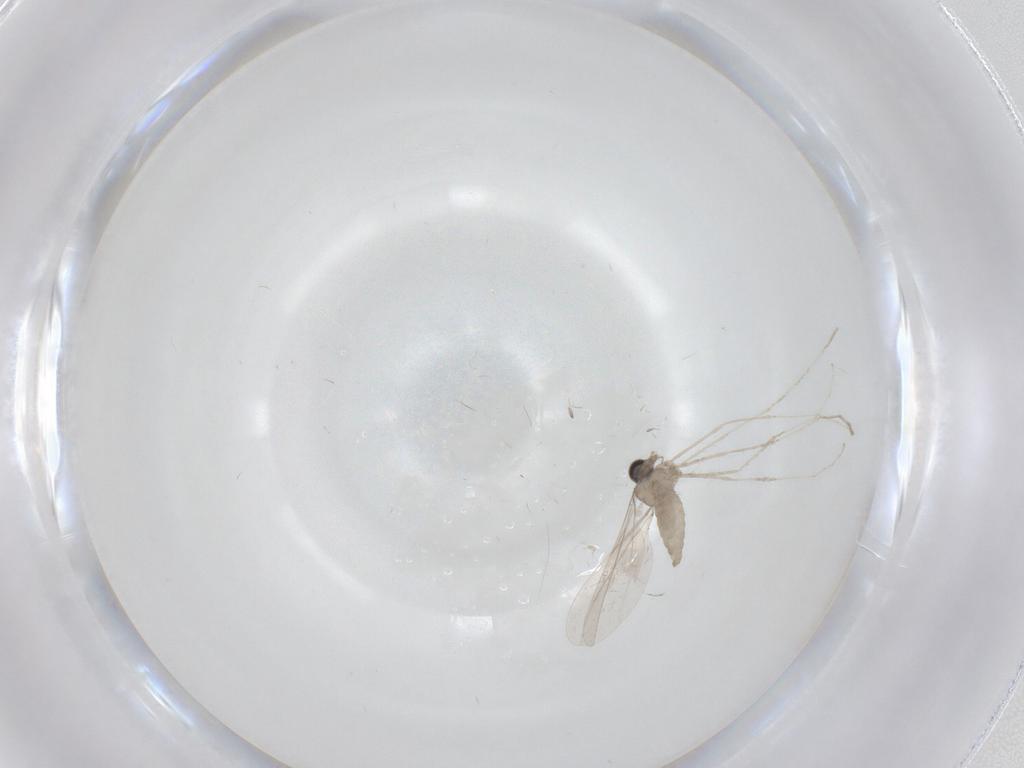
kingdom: Animalia
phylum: Arthropoda
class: Insecta
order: Diptera
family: Cecidomyiidae
